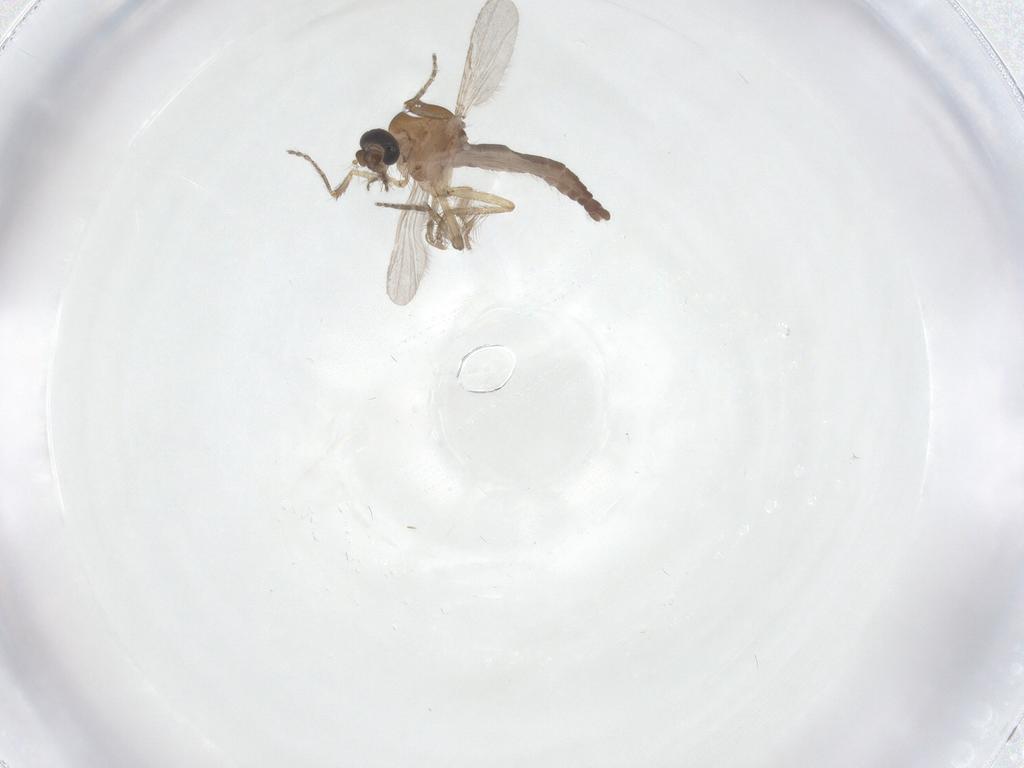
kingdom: Animalia
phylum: Arthropoda
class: Insecta
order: Diptera
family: Ceratopogonidae
